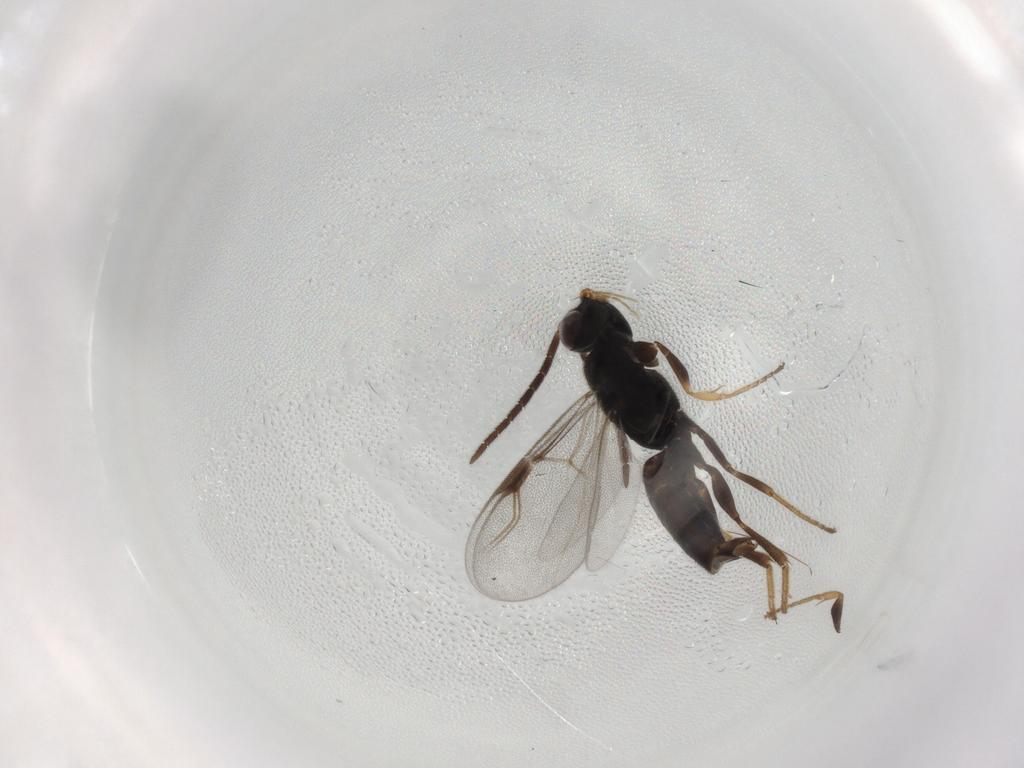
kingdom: Animalia
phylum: Arthropoda
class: Insecta
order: Hymenoptera
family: Dryinidae
